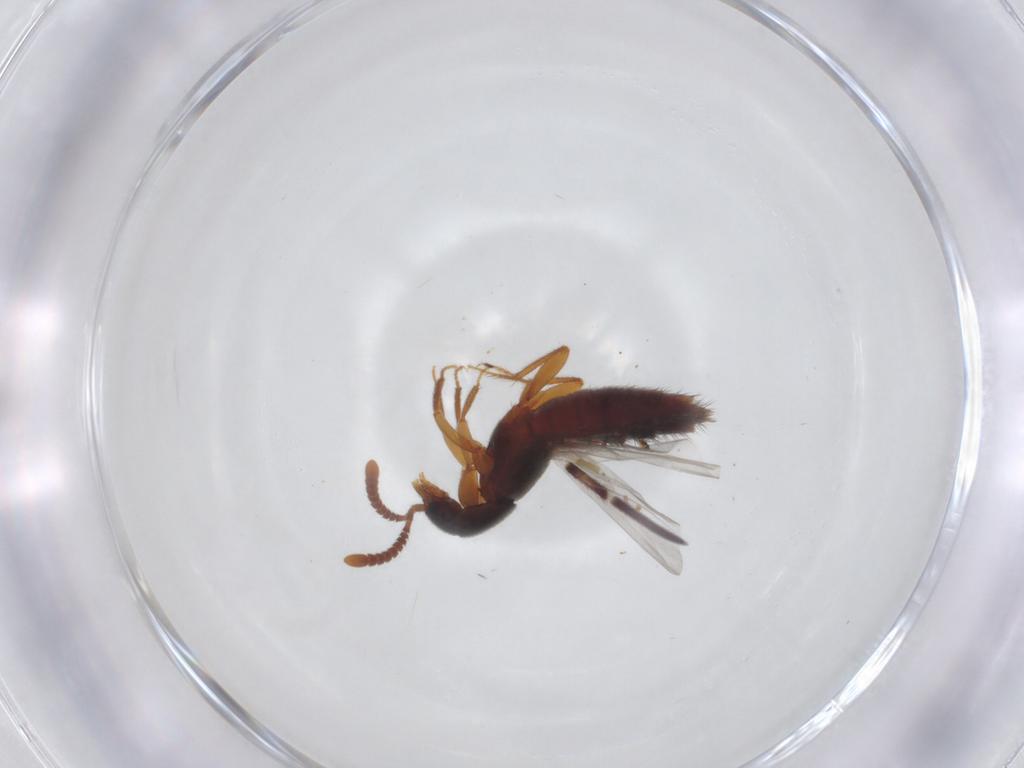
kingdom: Animalia
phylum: Arthropoda
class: Insecta
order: Coleoptera
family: Staphylinidae
